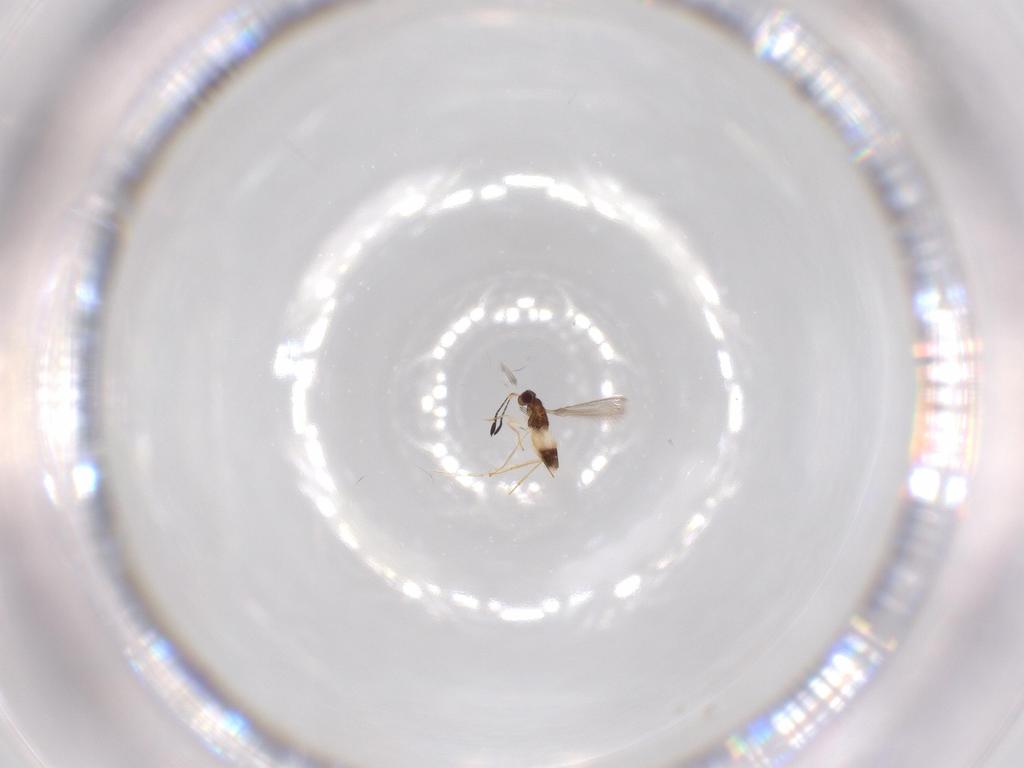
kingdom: Animalia
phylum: Arthropoda
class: Insecta
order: Hymenoptera
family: Mymaridae
